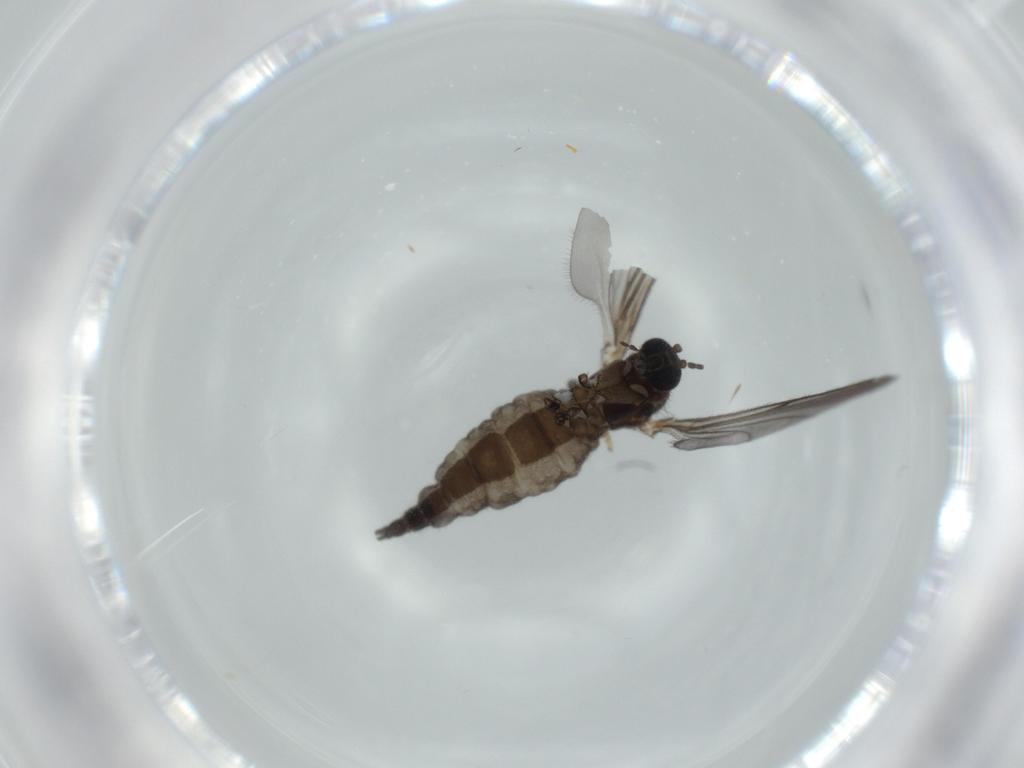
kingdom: Animalia
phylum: Arthropoda
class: Insecta
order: Diptera
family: Sciaridae
